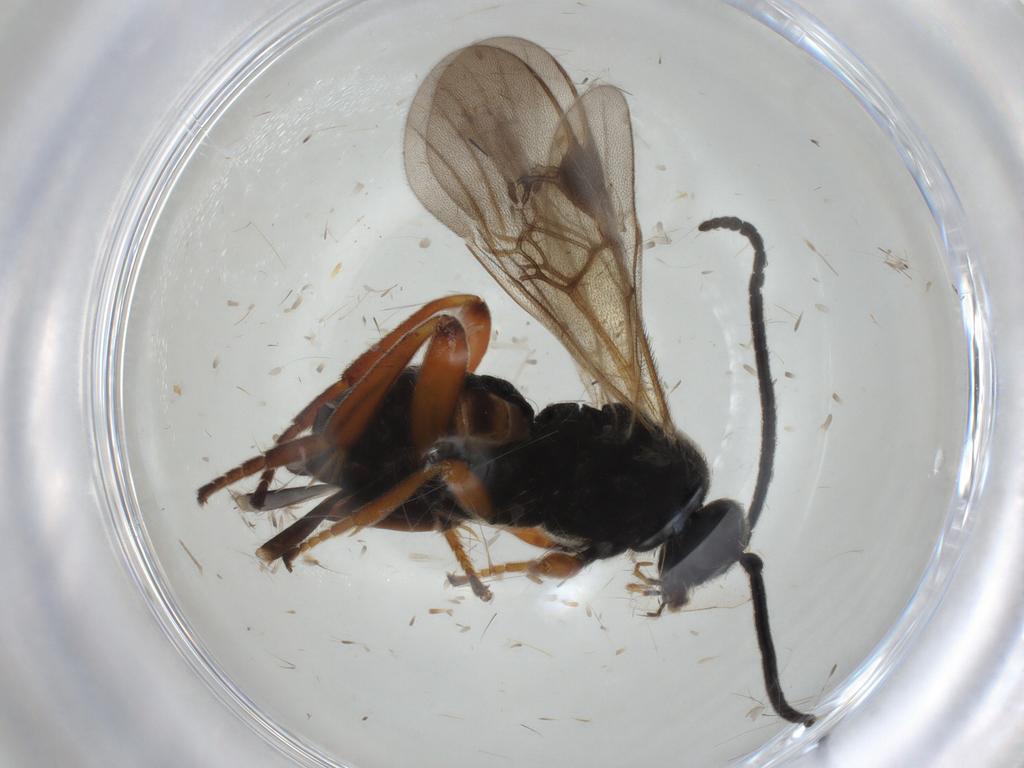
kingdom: Animalia
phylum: Arthropoda
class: Insecta
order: Hymenoptera
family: Braconidae
